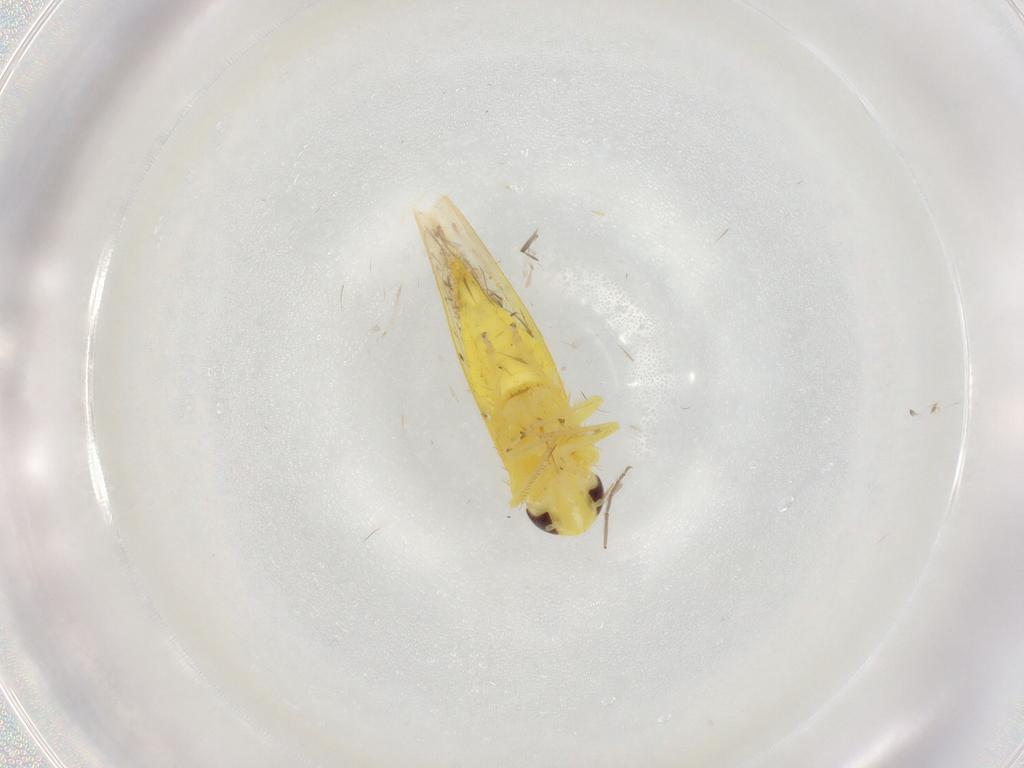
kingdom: Animalia
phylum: Arthropoda
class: Insecta
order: Hemiptera
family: Cicadellidae
